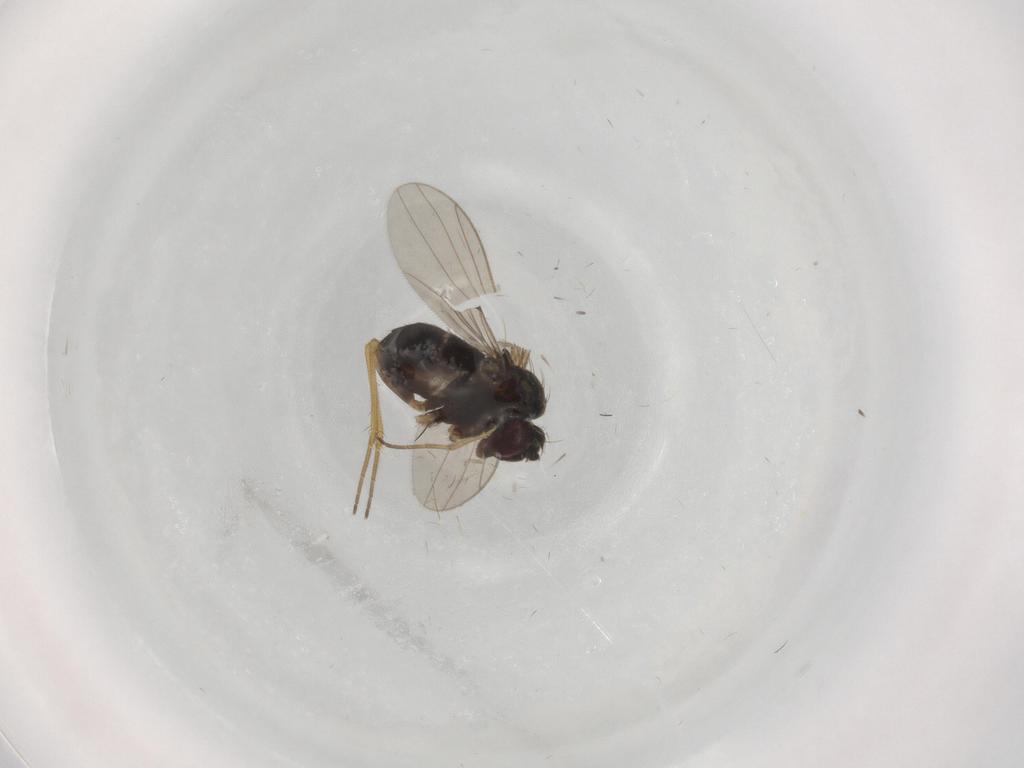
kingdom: Animalia
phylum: Arthropoda
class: Insecta
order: Diptera
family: Dolichopodidae
